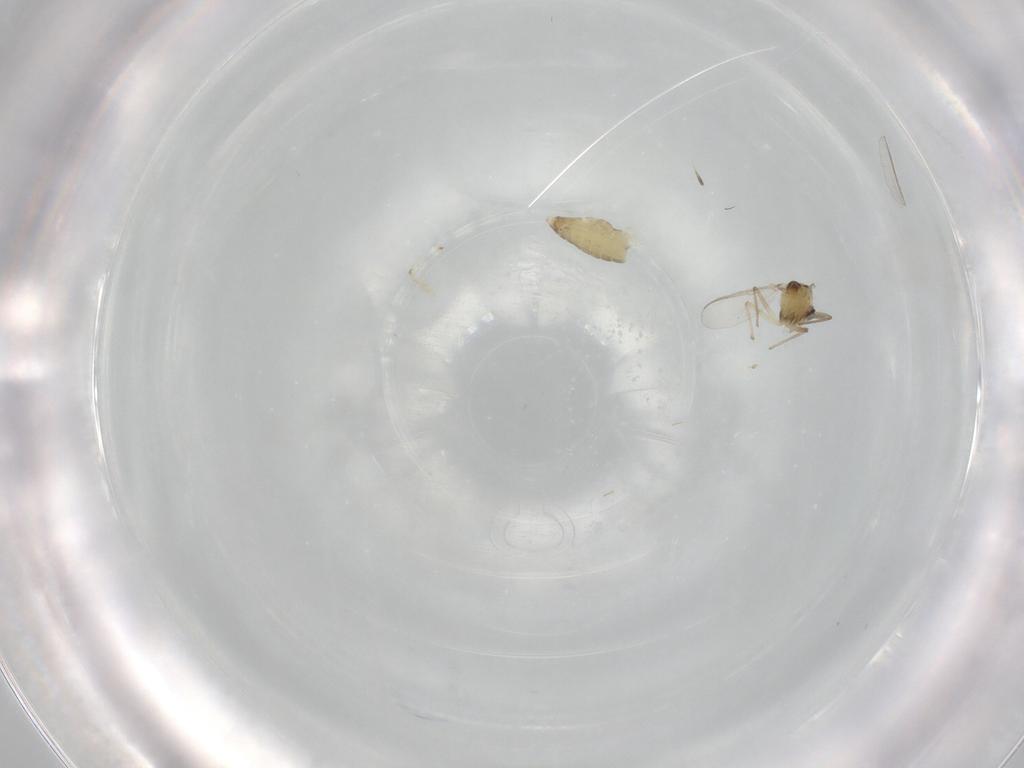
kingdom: Animalia
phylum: Arthropoda
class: Insecta
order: Diptera
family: Chironomidae
